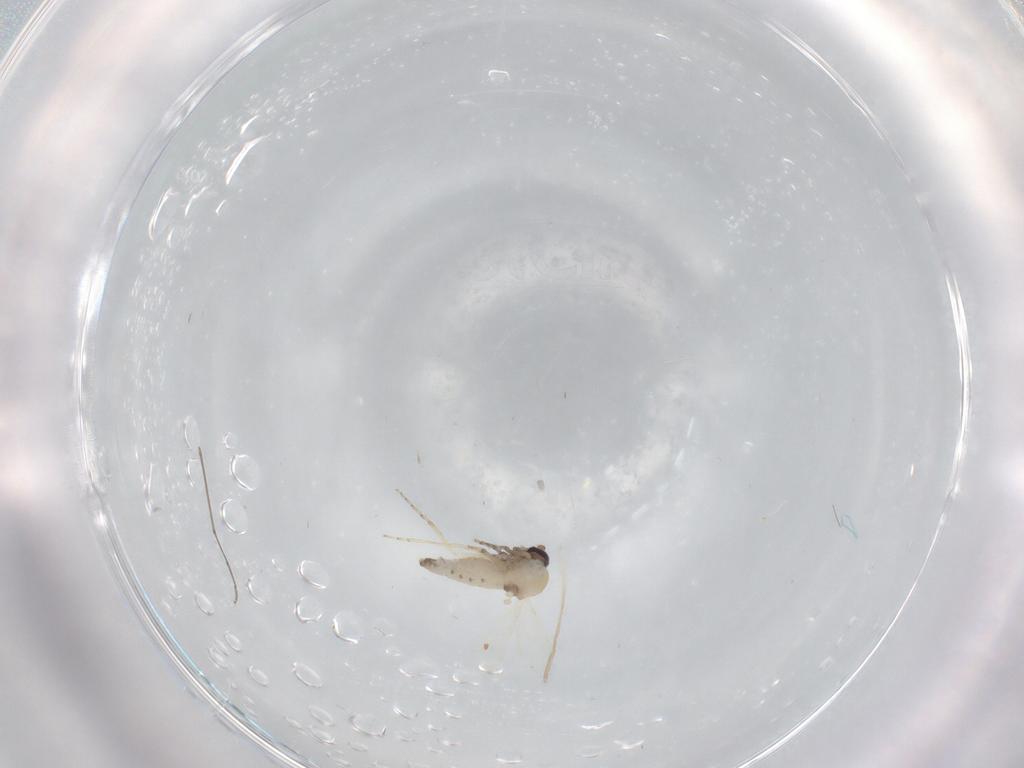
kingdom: Animalia
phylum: Arthropoda
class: Insecta
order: Diptera
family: Ceratopogonidae
